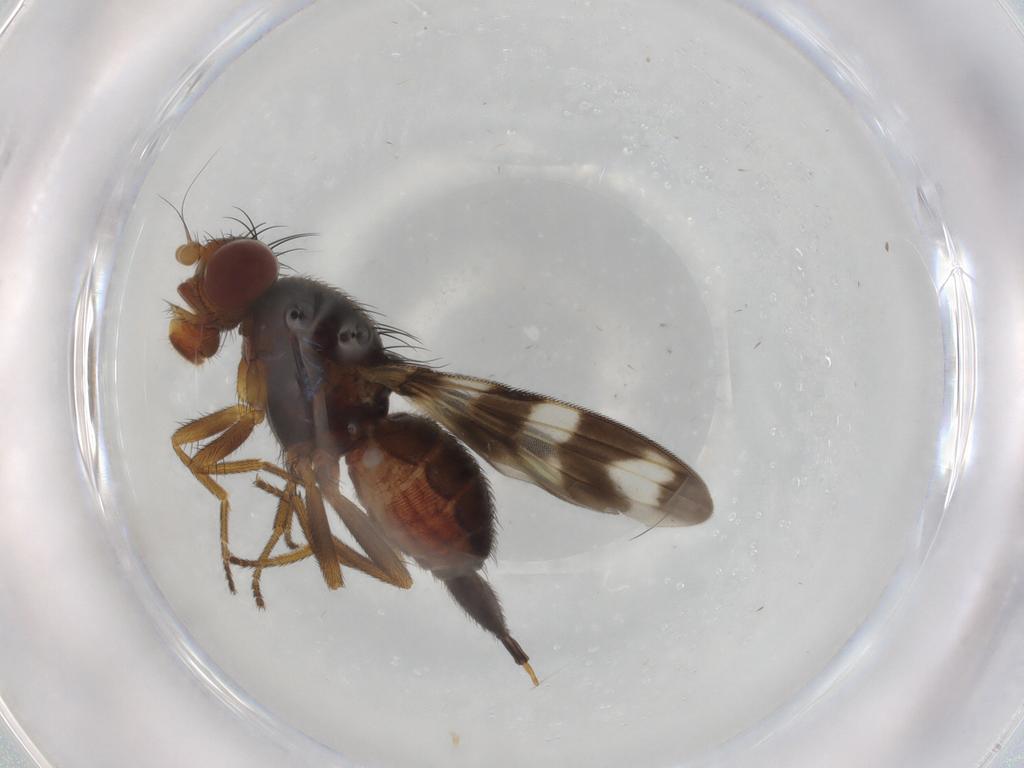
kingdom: Animalia
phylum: Arthropoda
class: Insecta
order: Diptera
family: Ulidiidae
